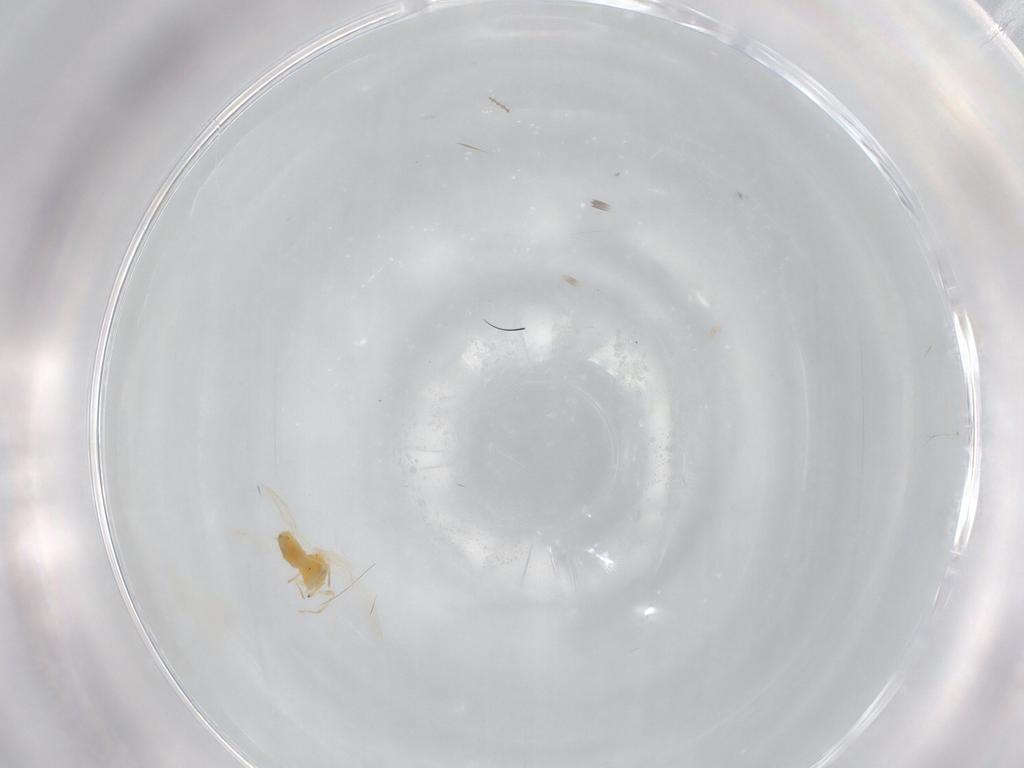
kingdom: Animalia
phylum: Arthropoda
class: Insecta
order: Hemiptera
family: Aleyrodidae
